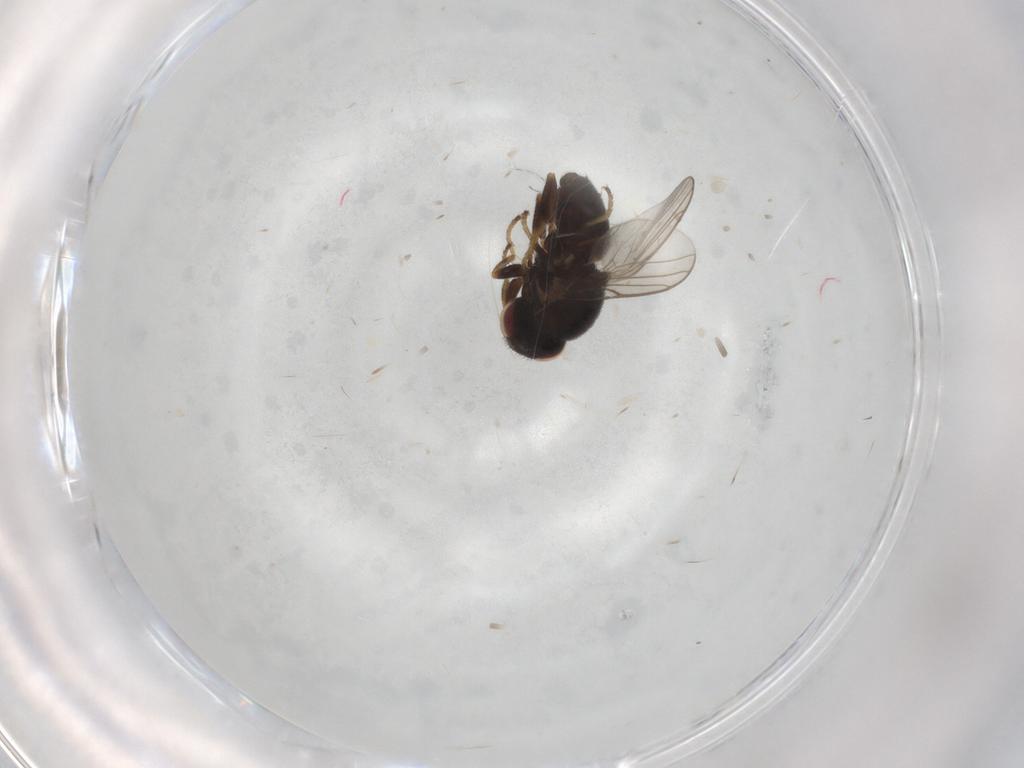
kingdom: Animalia
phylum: Arthropoda
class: Insecta
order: Diptera
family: Chloropidae
